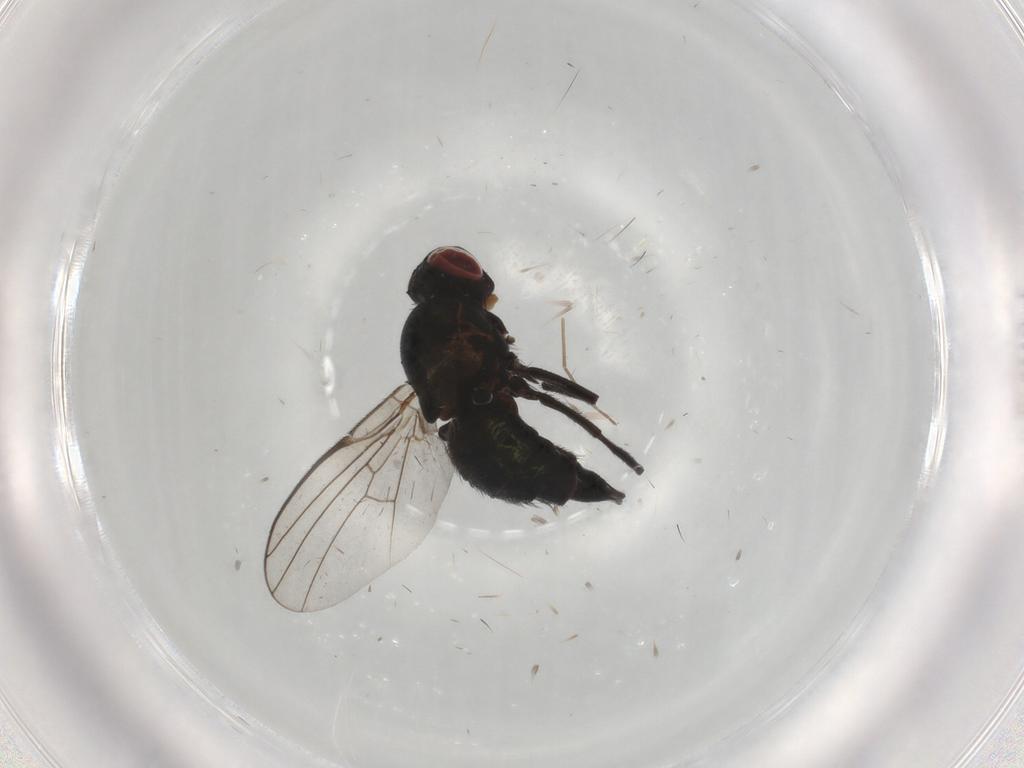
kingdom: Animalia
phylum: Arthropoda
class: Insecta
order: Diptera
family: Agromyzidae
